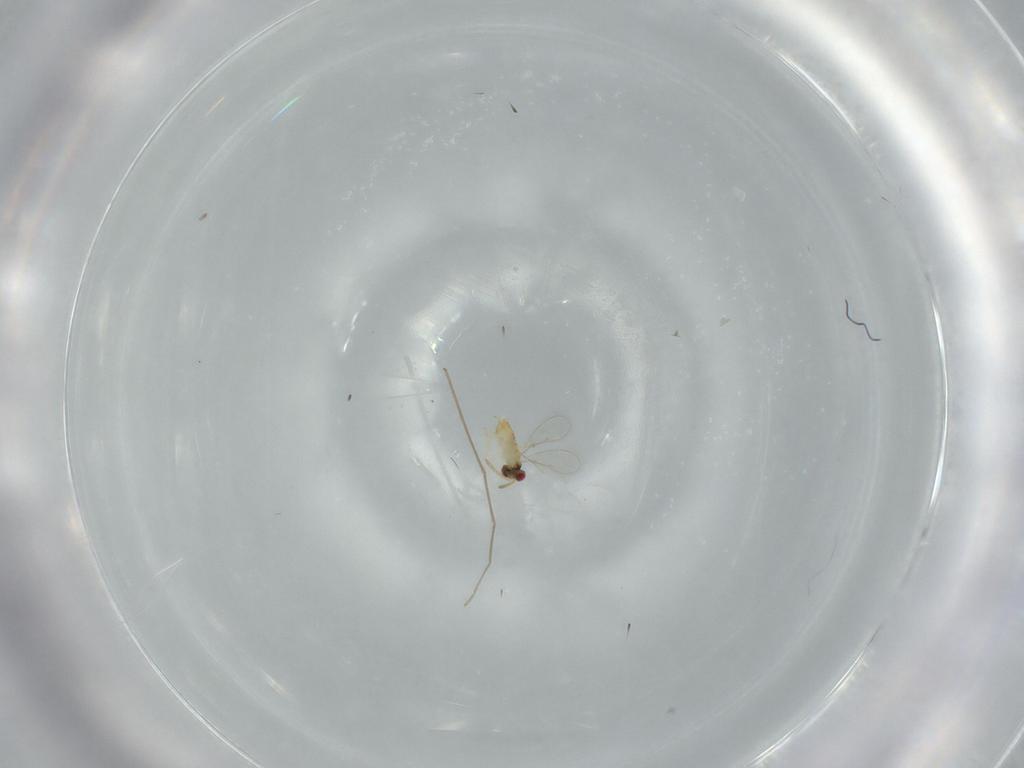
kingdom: Animalia
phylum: Arthropoda
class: Insecta
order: Hymenoptera
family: Aphelinidae
